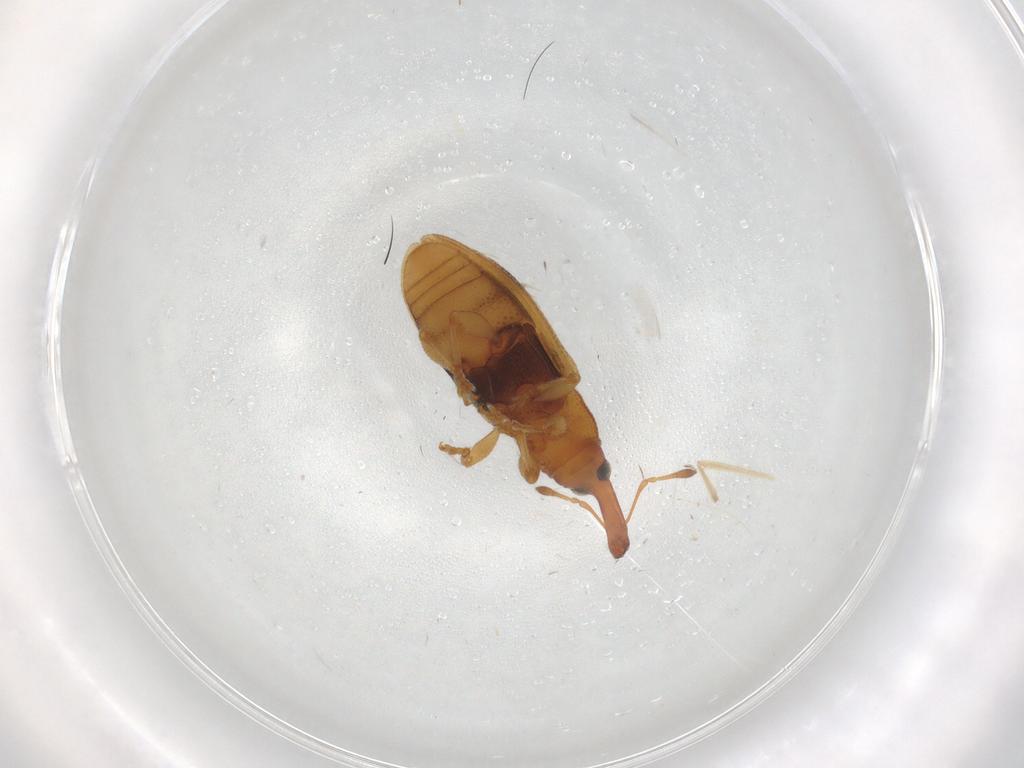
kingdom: Animalia
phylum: Arthropoda
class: Insecta
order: Coleoptera
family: Curculionidae
